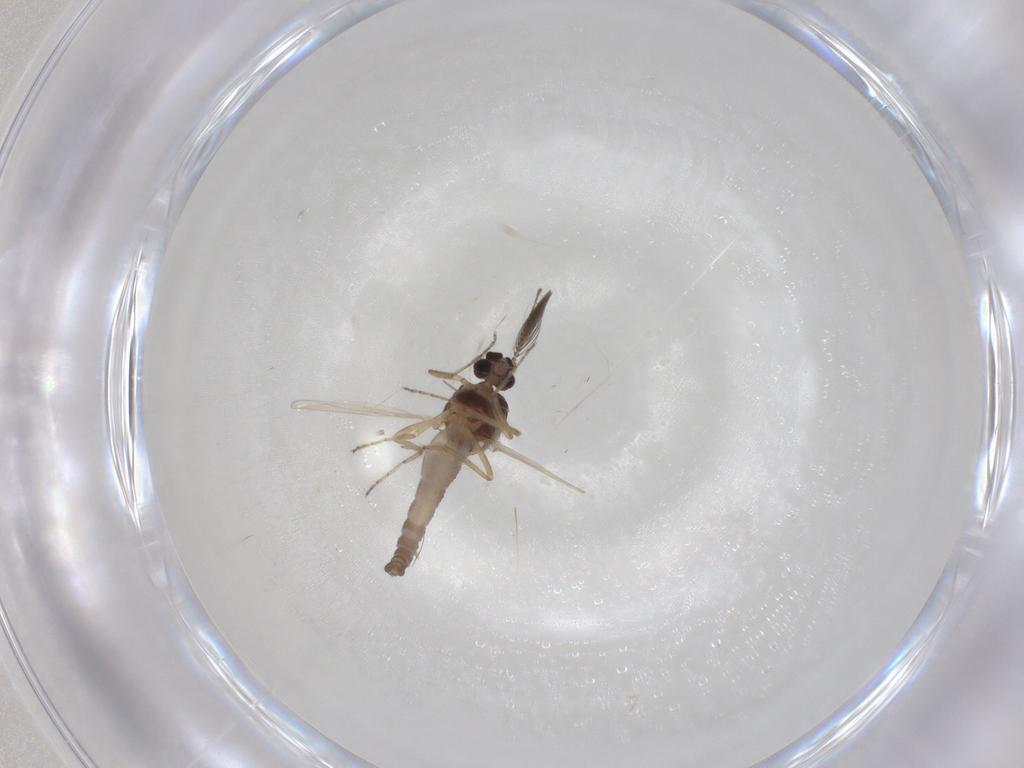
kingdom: Animalia
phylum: Arthropoda
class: Insecta
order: Diptera
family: Ceratopogonidae
